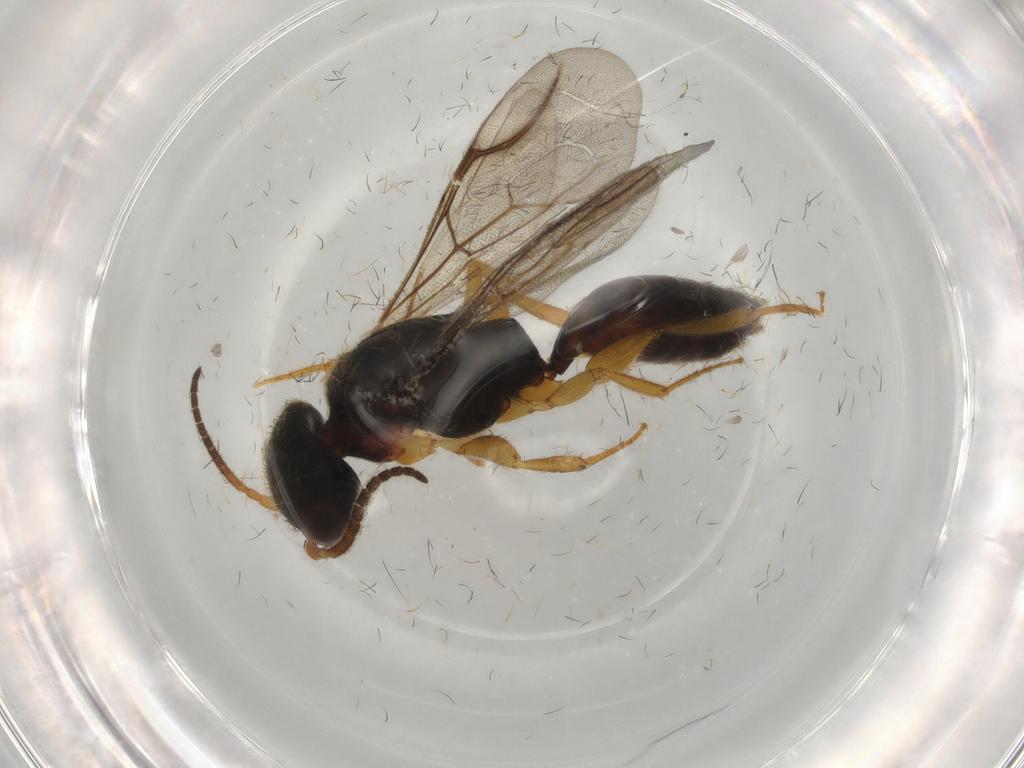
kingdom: Animalia
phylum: Arthropoda
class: Insecta
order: Hymenoptera
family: Bethylidae
